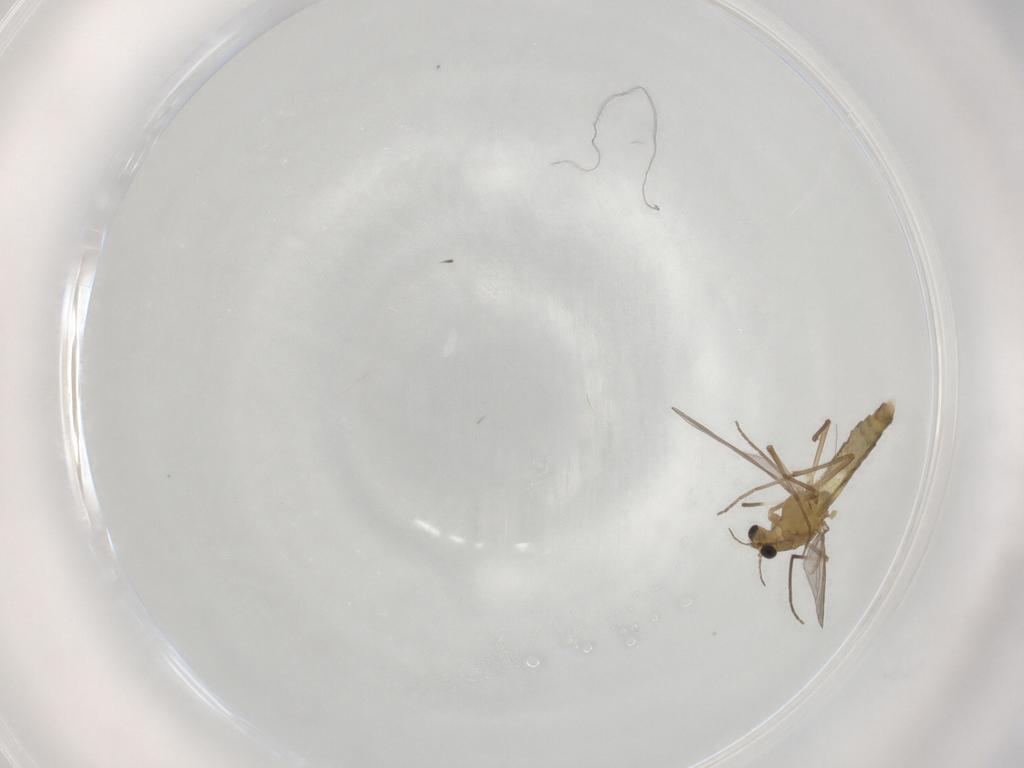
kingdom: Animalia
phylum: Arthropoda
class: Insecta
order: Diptera
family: Chironomidae
